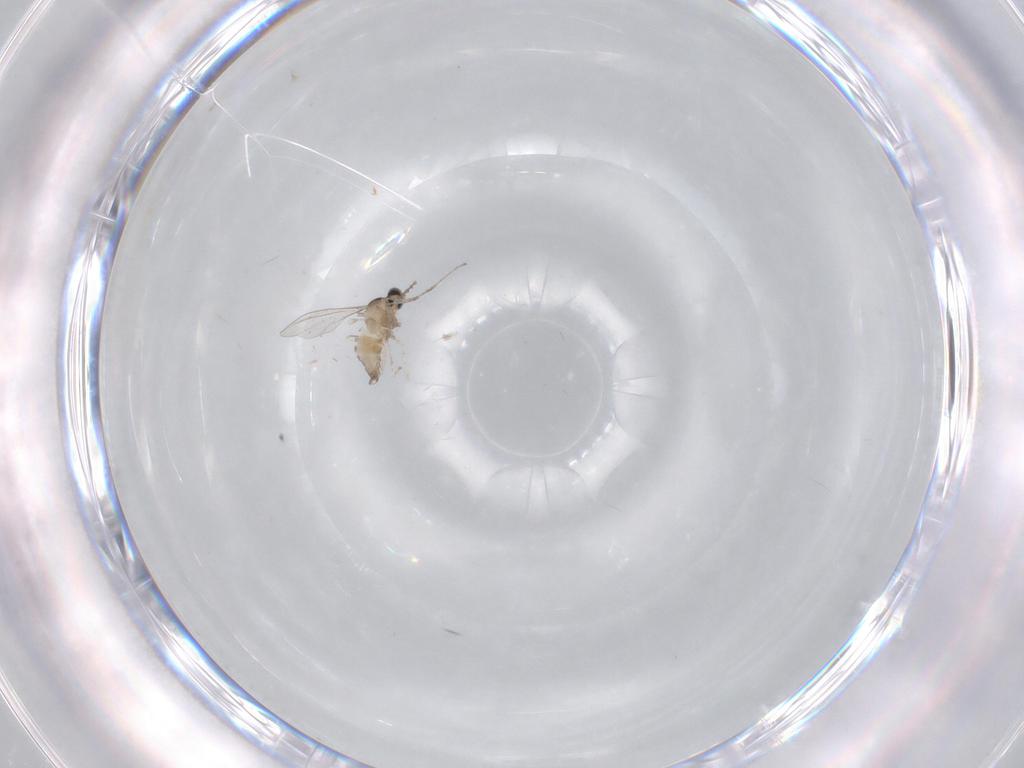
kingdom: Animalia
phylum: Arthropoda
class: Insecta
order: Diptera
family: Cecidomyiidae
